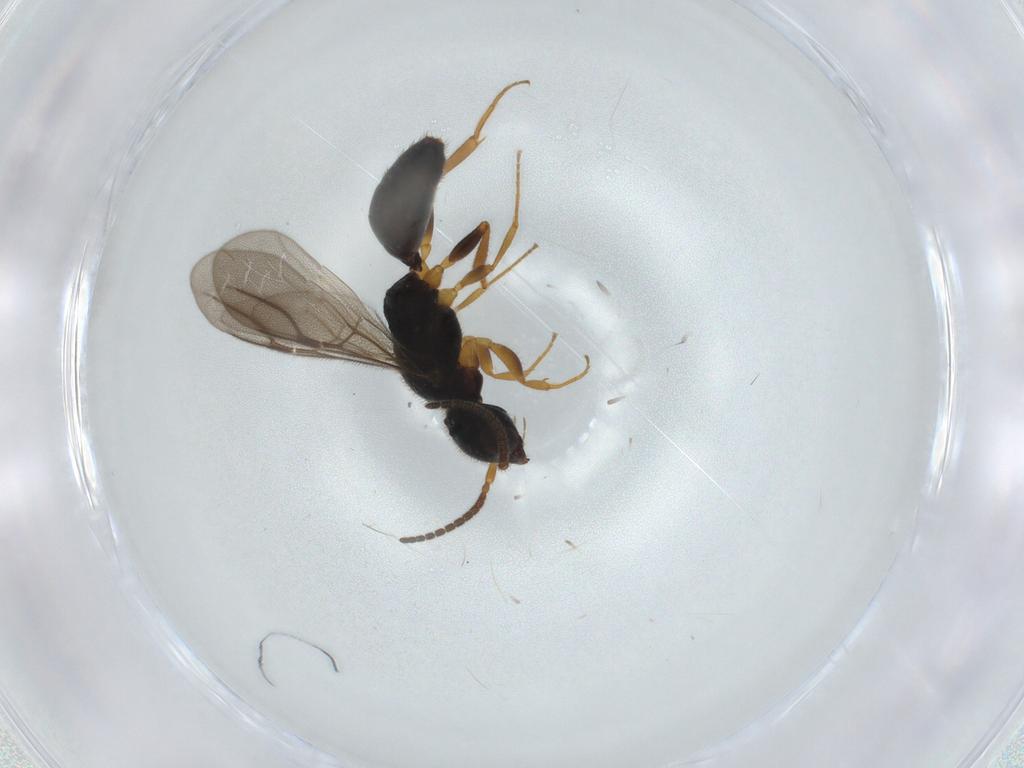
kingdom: Animalia
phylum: Arthropoda
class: Insecta
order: Hymenoptera
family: Bethylidae
